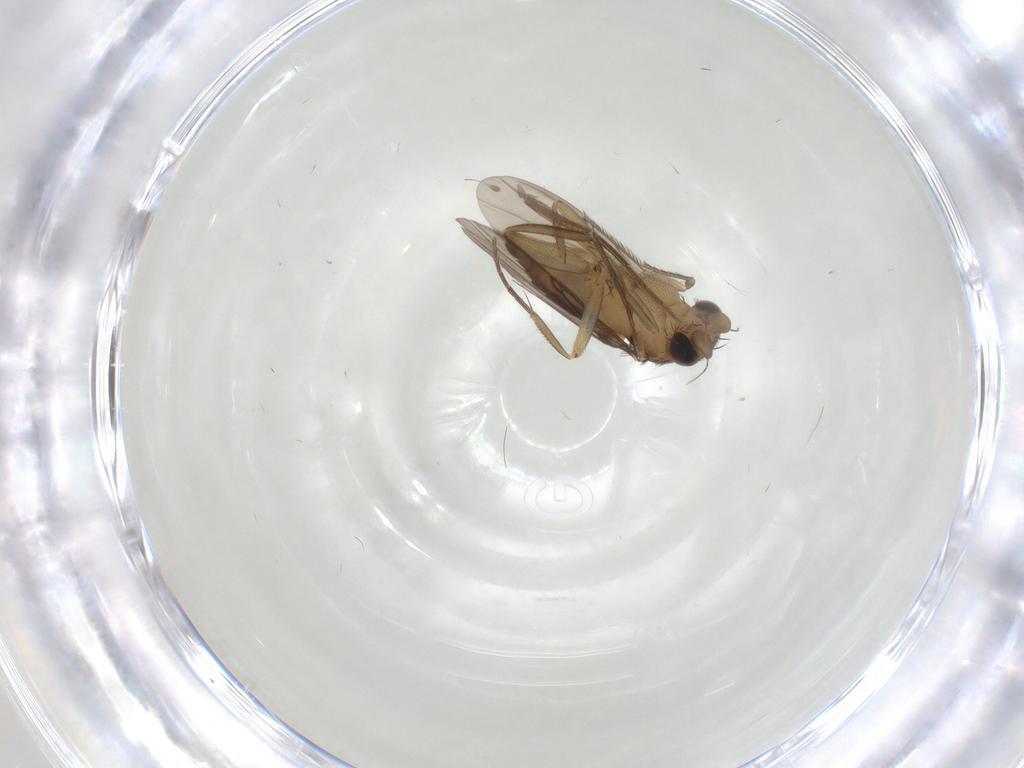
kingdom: Animalia
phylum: Arthropoda
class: Insecta
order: Diptera
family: Phoridae
